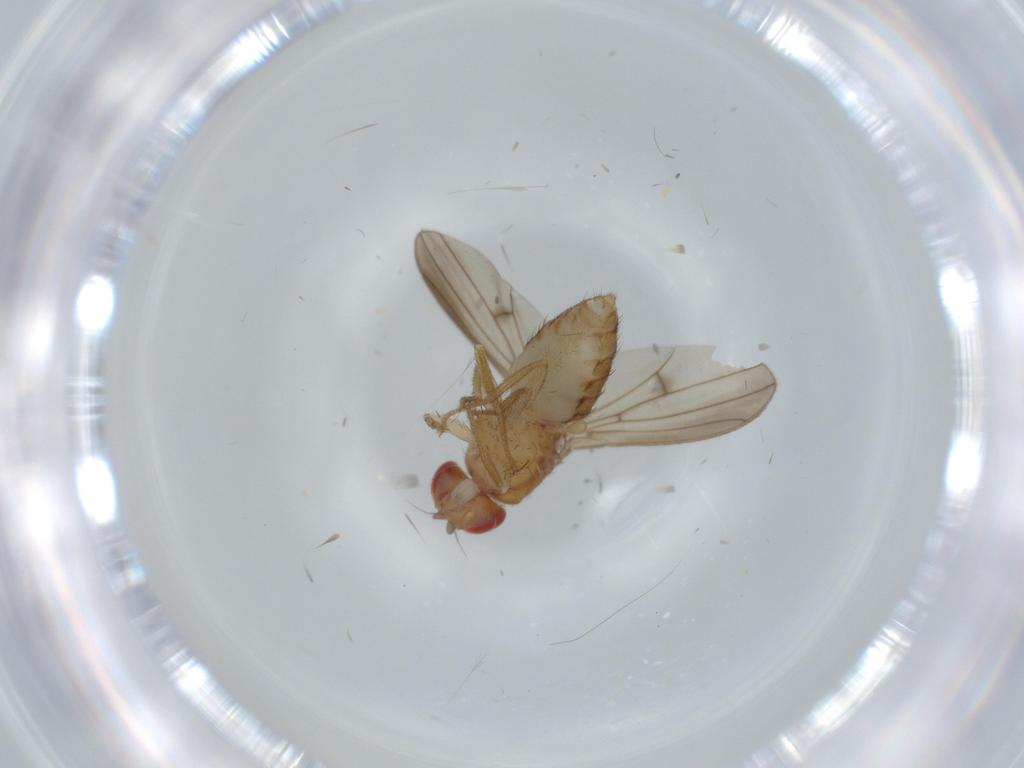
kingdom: Animalia
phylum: Arthropoda
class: Insecta
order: Diptera
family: Drosophilidae
